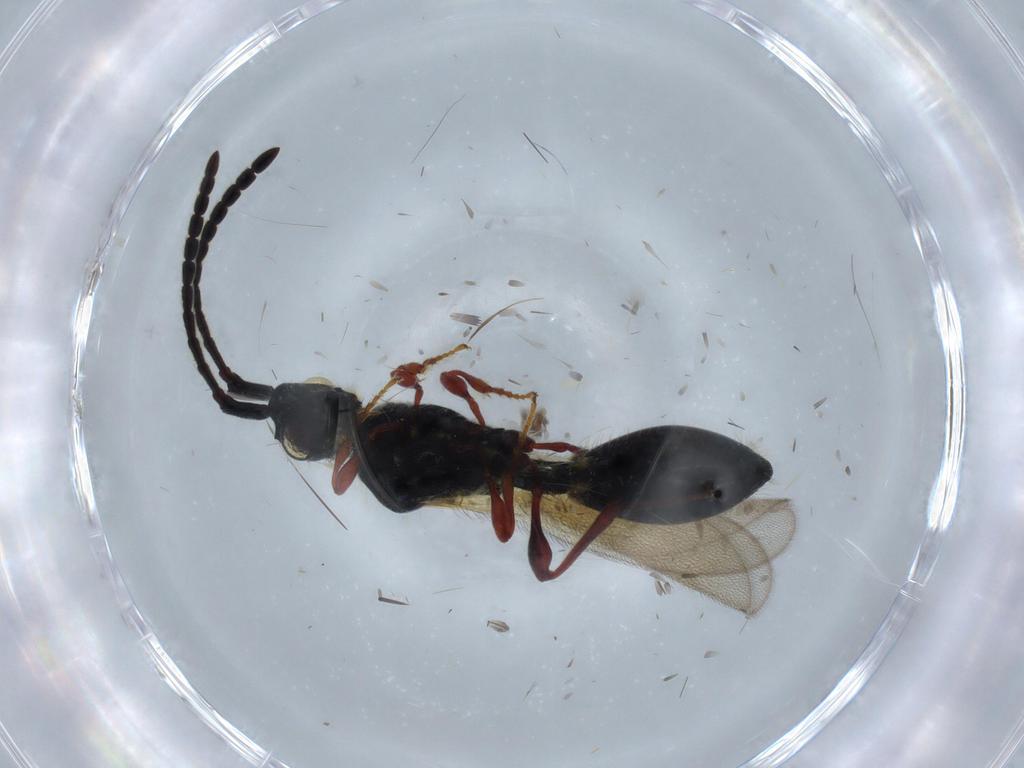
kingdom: Animalia
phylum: Arthropoda
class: Insecta
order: Hymenoptera
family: Diapriidae
